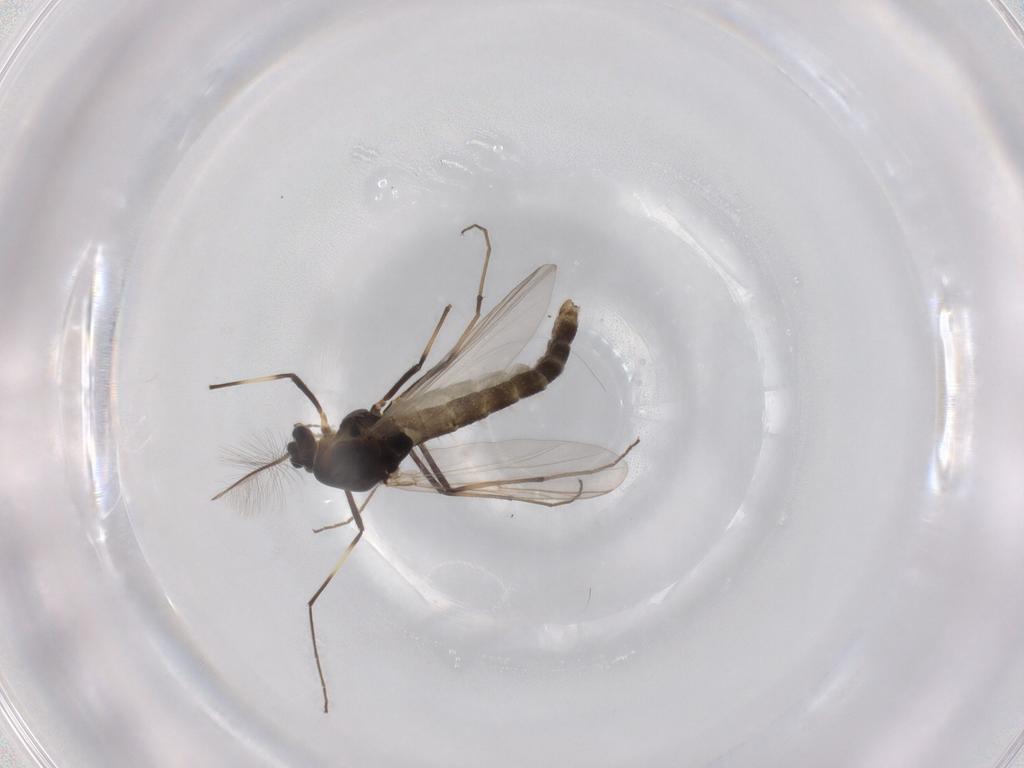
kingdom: Animalia
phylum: Arthropoda
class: Insecta
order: Diptera
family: Chironomidae
